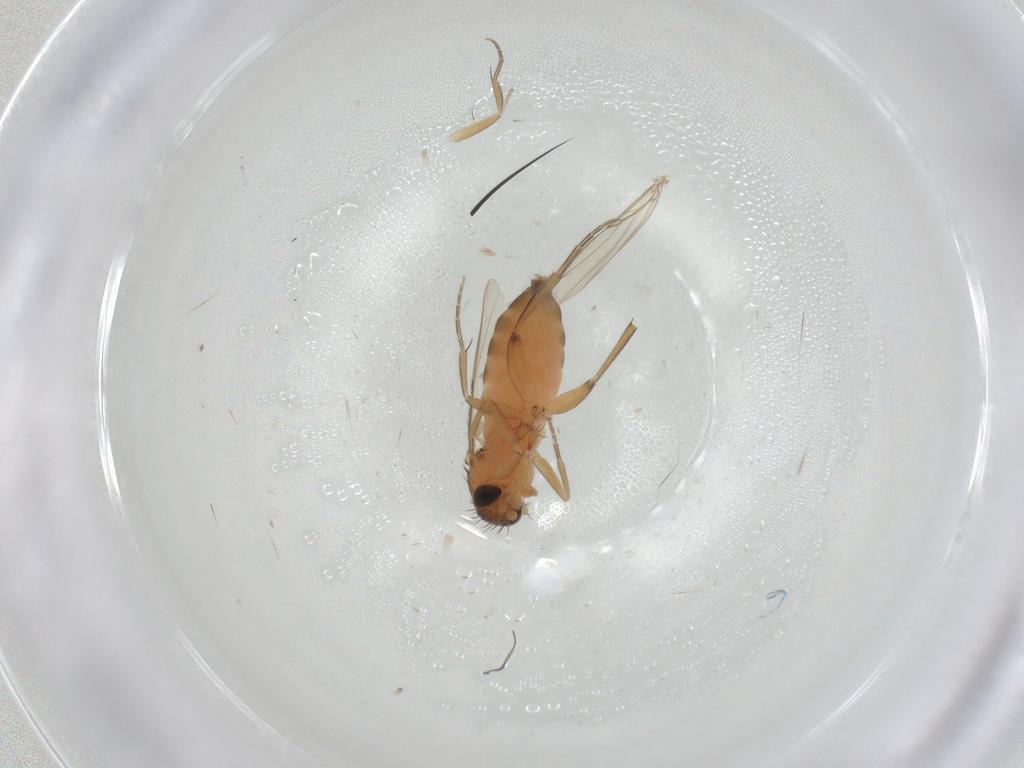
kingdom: Animalia
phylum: Arthropoda
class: Insecta
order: Diptera
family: Phoridae
